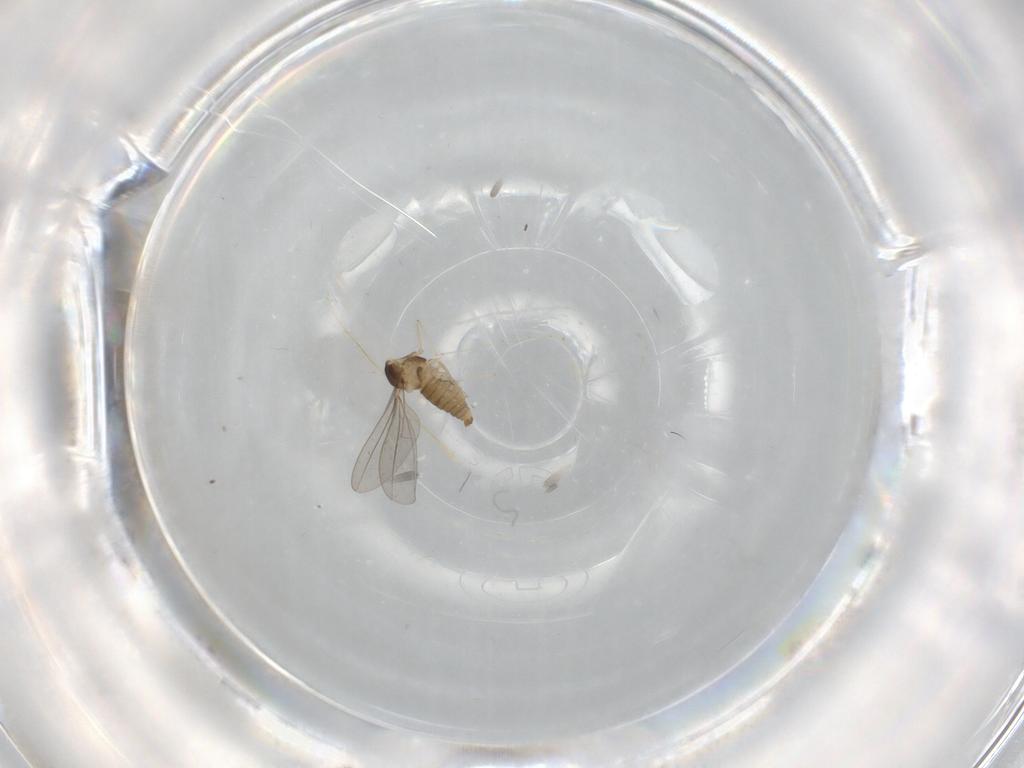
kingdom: Animalia
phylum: Arthropoda
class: Insecta
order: Diptera
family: Cecidomyiidae
